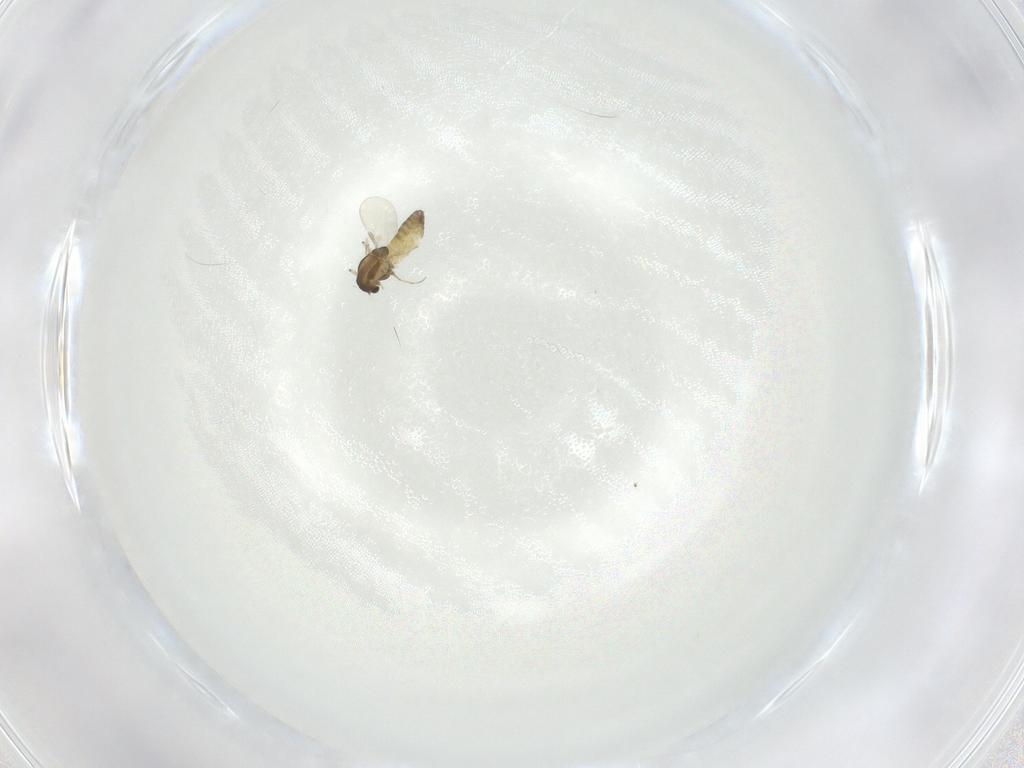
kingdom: Animalia
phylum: Arthropoda
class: Insecta
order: Diptera
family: Chironomidae
